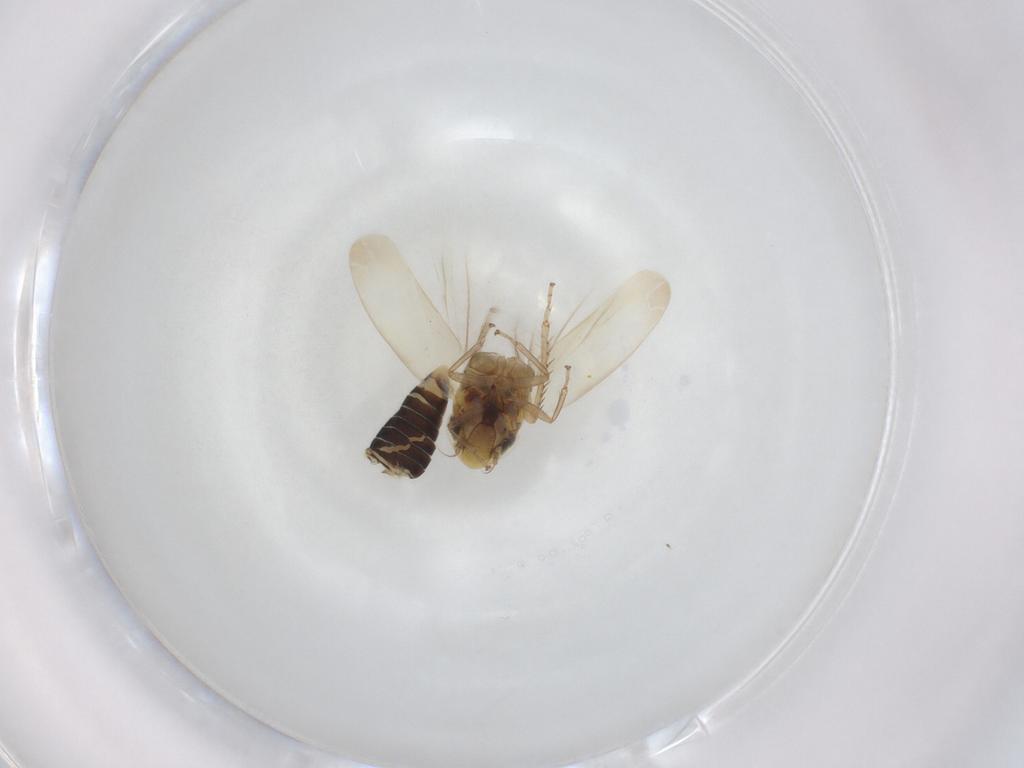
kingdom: Animalia
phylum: Arthropoda
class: Insecta
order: Hemiptera
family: Cicadellidae
